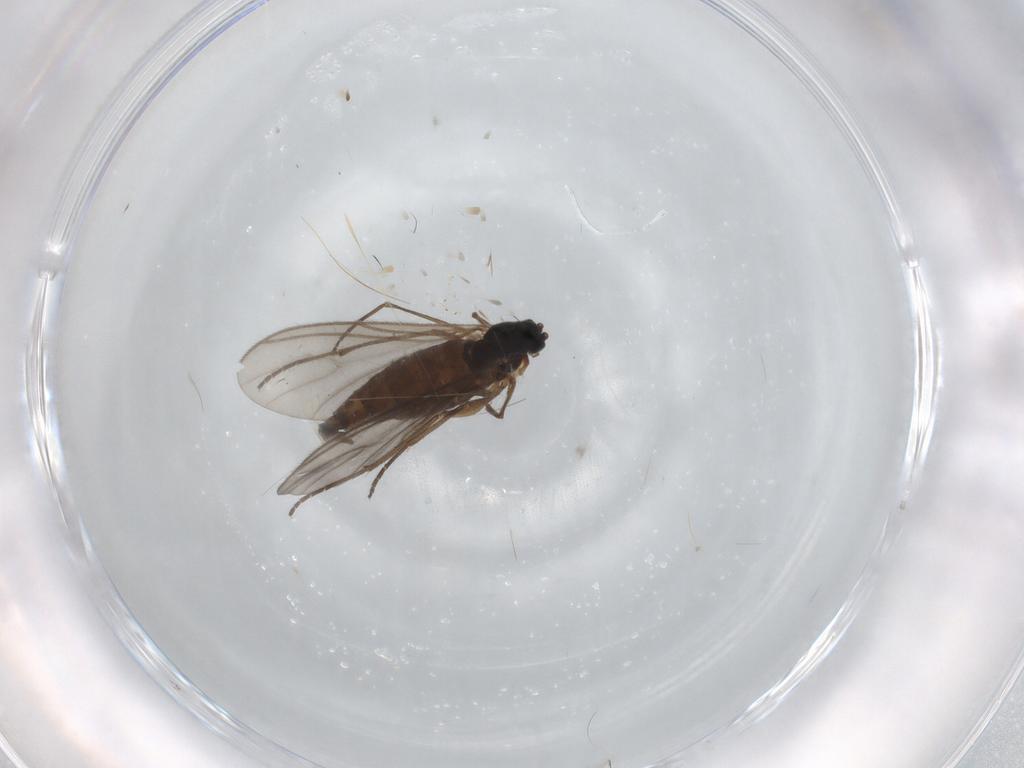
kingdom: Animalia
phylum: Arthropoda
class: Insecta
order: Diptera
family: Sciaridae
